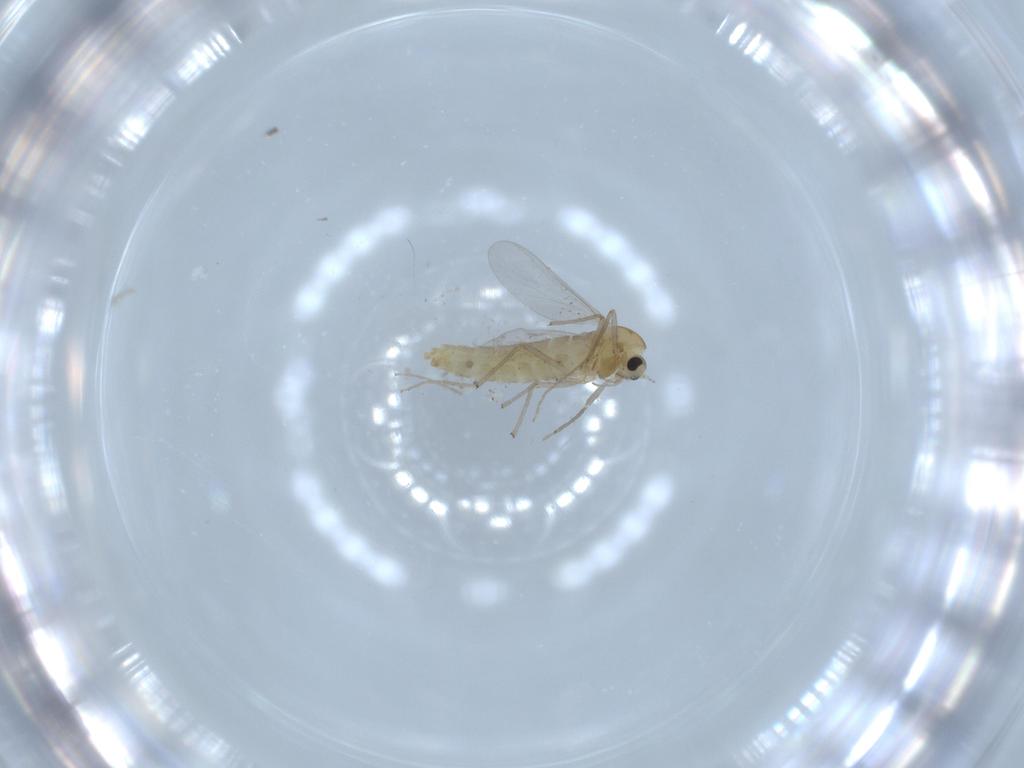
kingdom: Animalia
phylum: Arthropoda
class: Insecta
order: Diptera
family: Chironomidae
